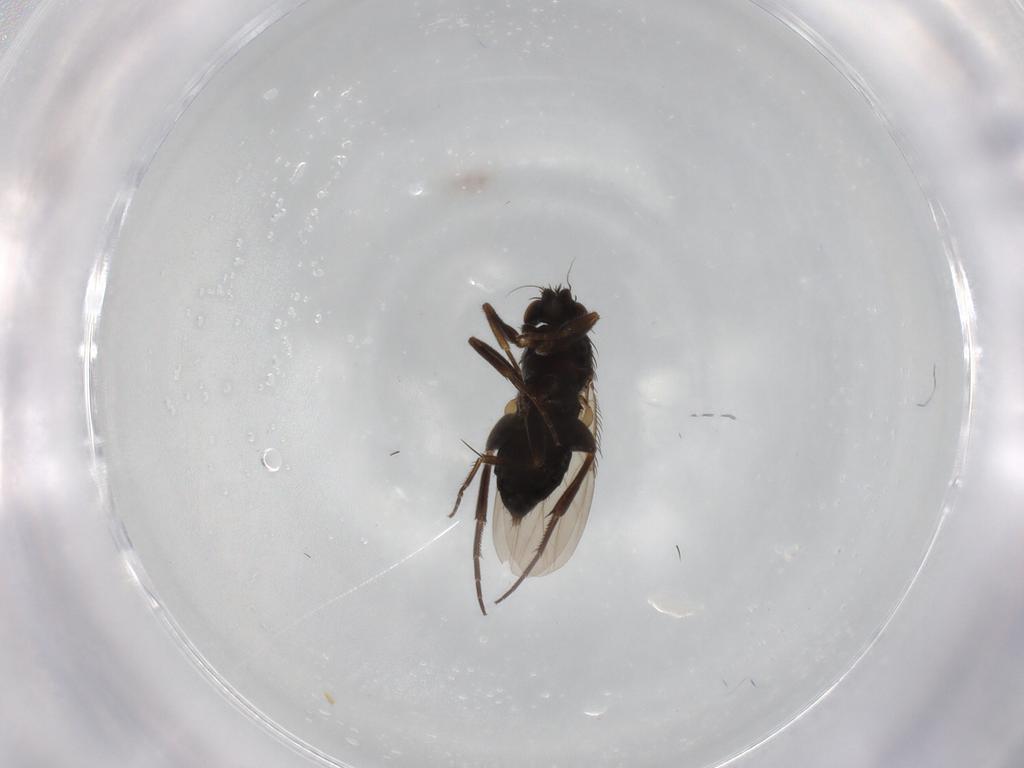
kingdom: Animalia
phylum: Arthropoda
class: Insecta
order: Diptera
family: Phoridae
